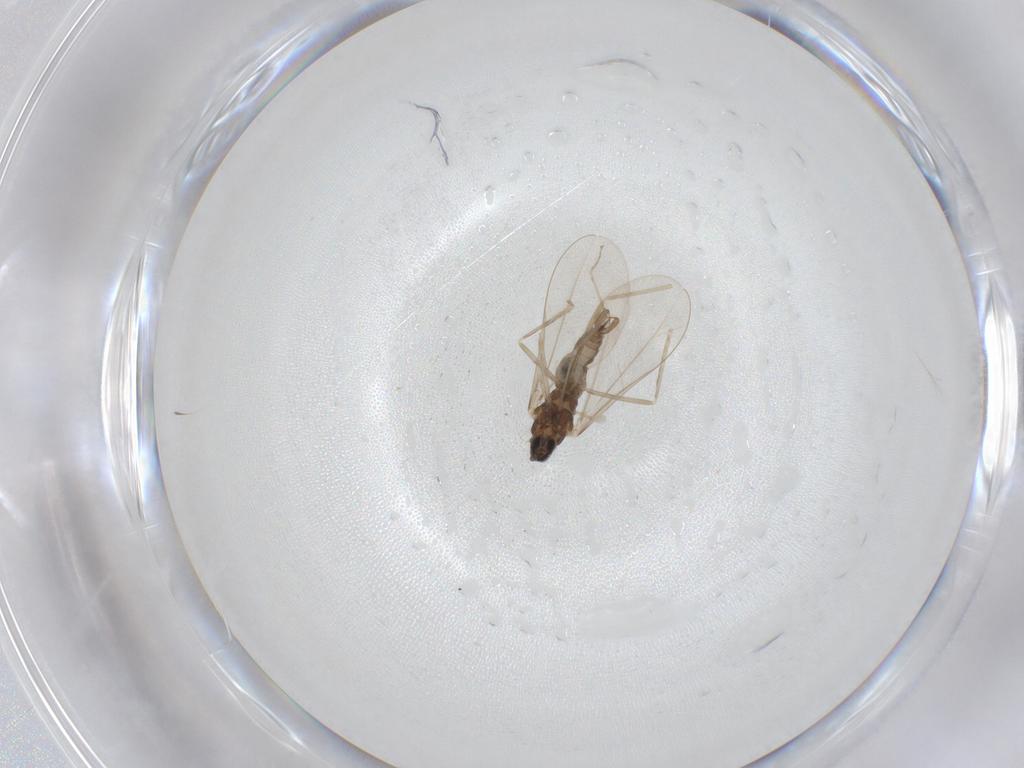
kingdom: Animalia
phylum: Arthropoda
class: Insecta
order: Diptera
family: Cecidomyiidae
